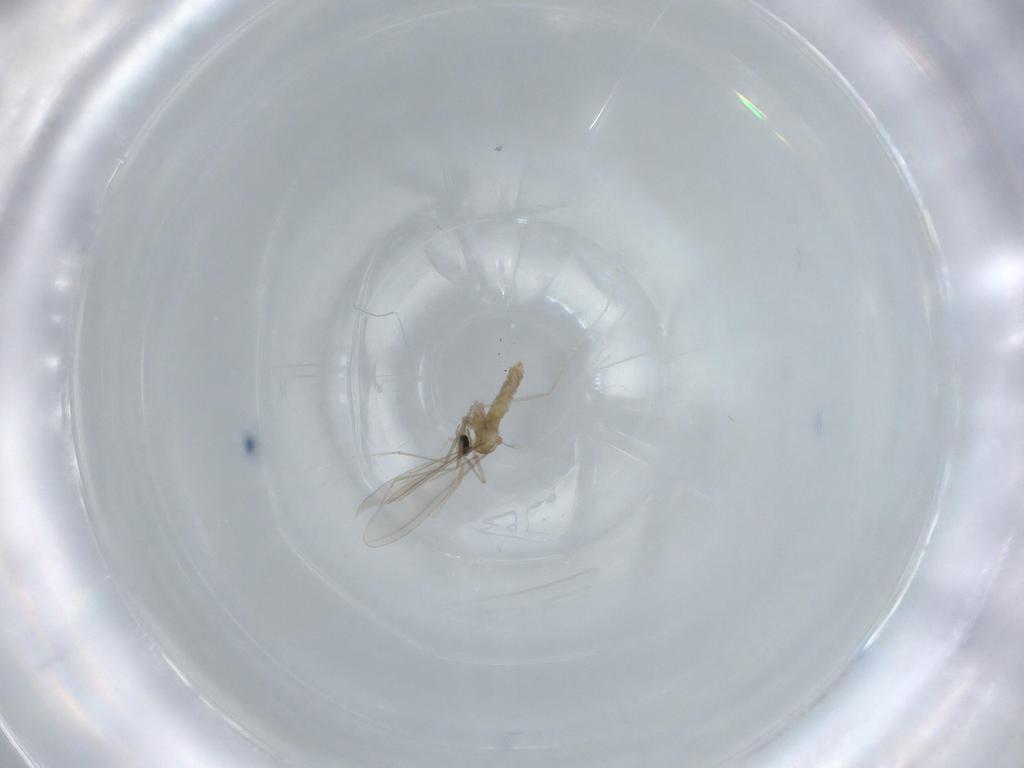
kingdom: Animalia
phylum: Arthropoda
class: Insecta
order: Diptera
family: Cecidomyiidae
